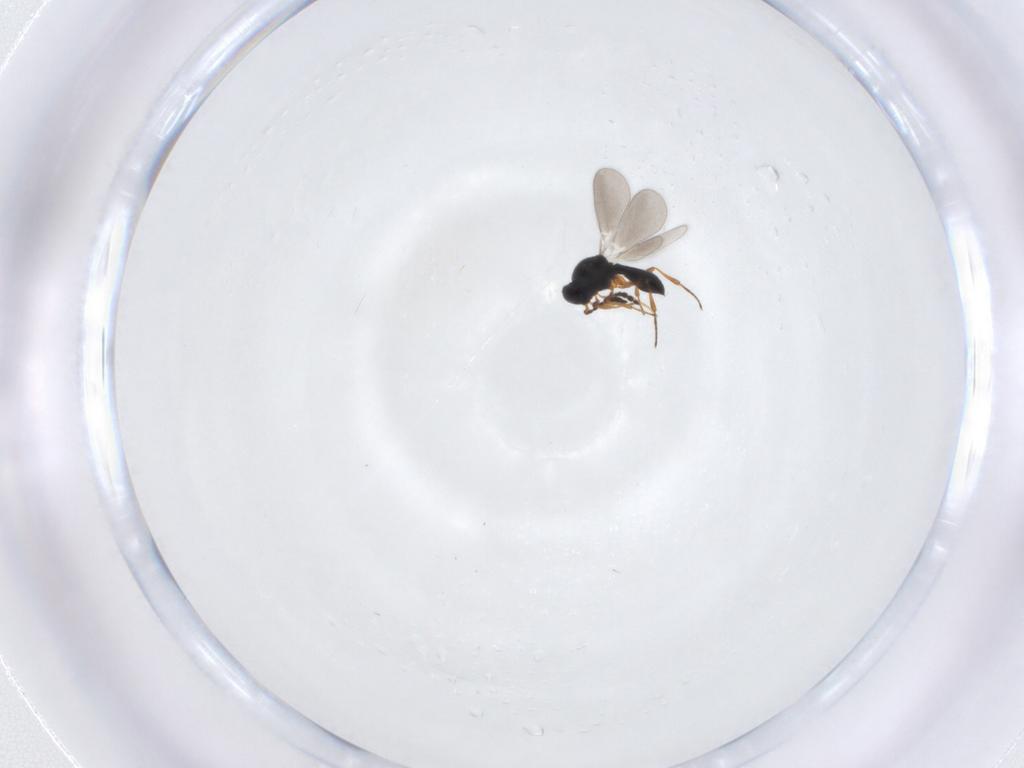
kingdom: Animalia
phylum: Arthropoda
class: Insecta
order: Hymenoptera
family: Platygastridae
